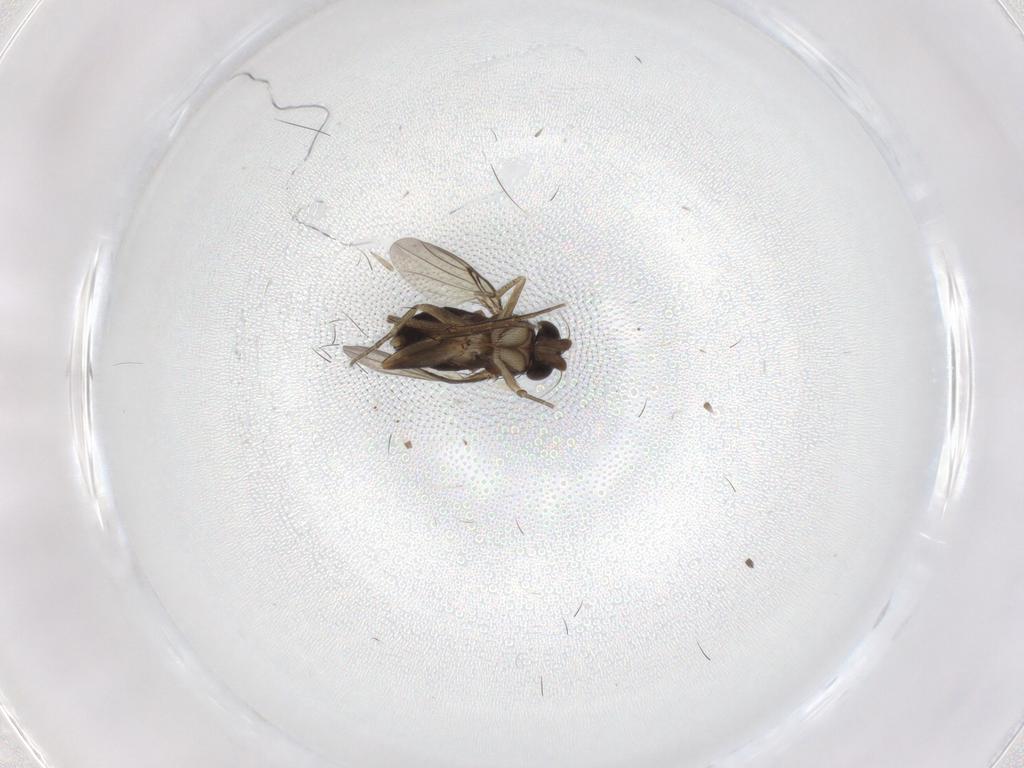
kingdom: Animalia
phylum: Arthropoda
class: Insecta
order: Diptera
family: Phoridae
